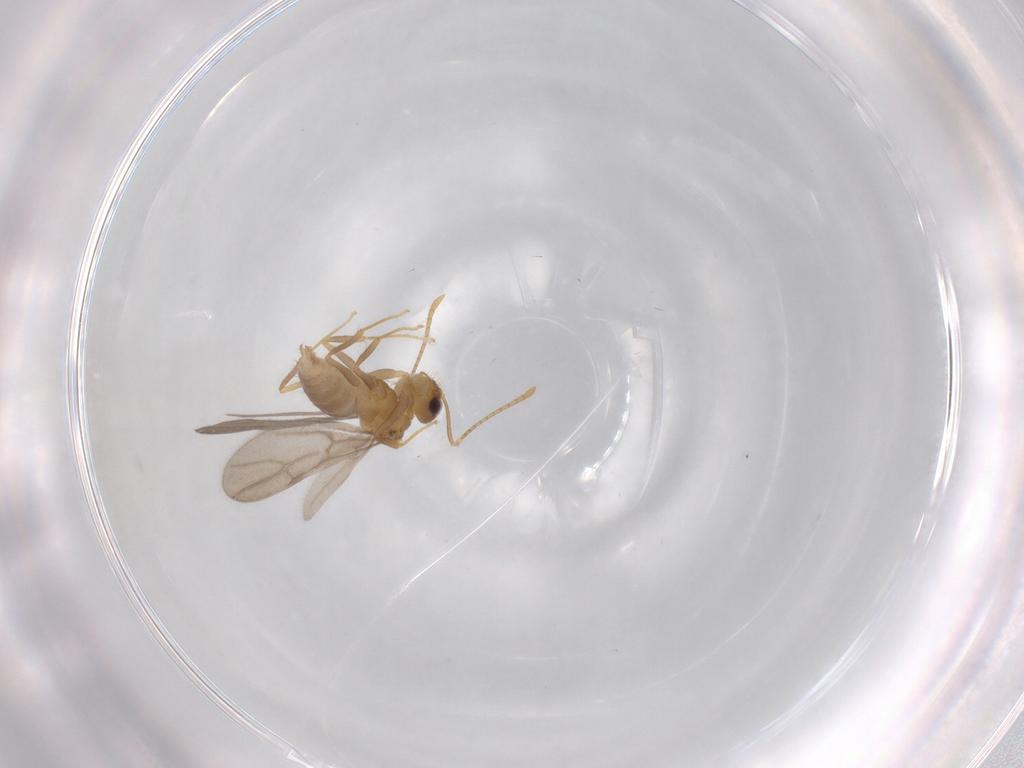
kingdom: Animalia
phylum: Arthropoda
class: Insecta
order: Hymenoptera
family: Formicidae
